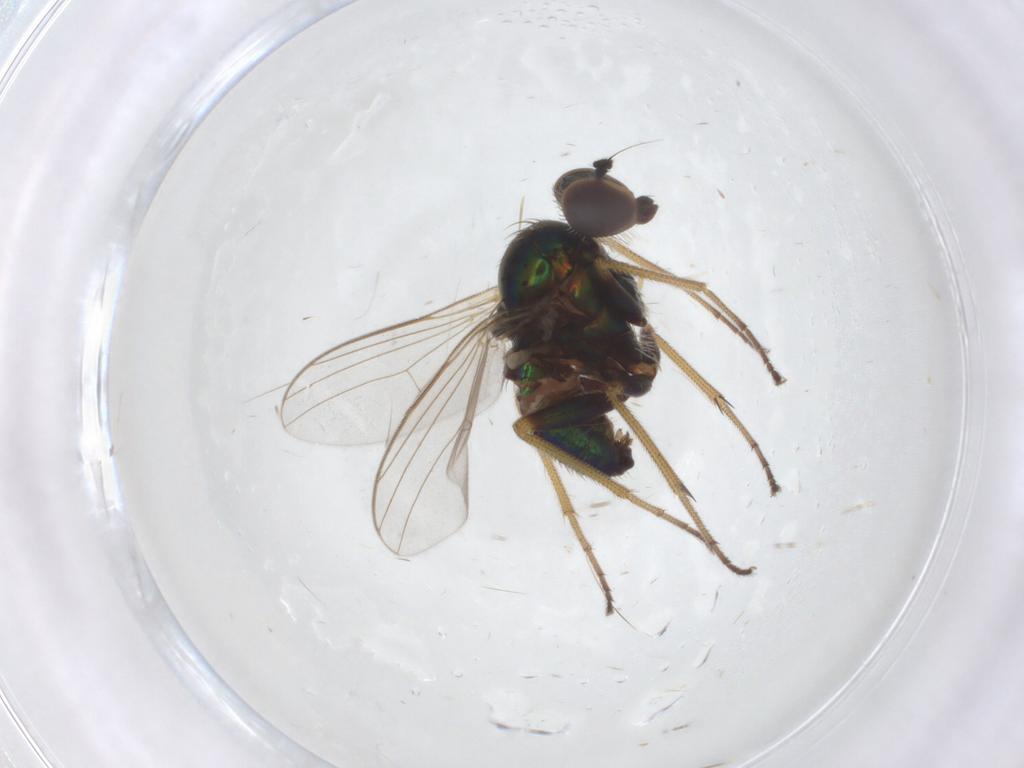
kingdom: Animalia
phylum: Arthropoda
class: Insecta
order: Diptera
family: Dolichopodidae
